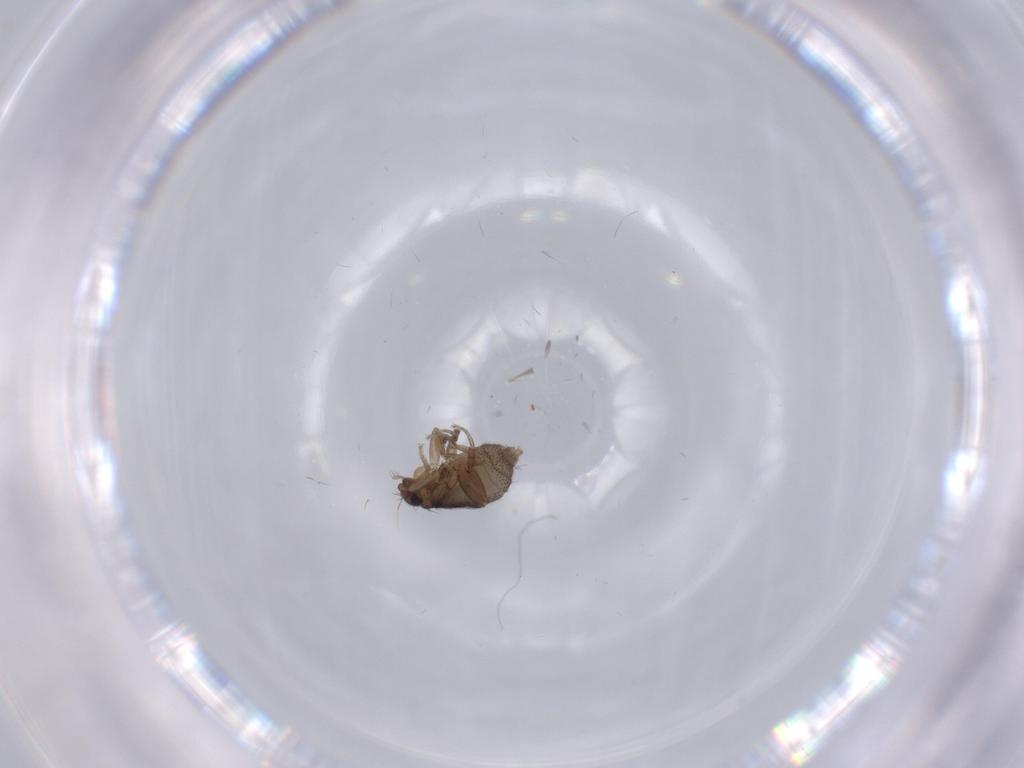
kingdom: Animalia
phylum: Arthropoda
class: Insecta
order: Diptera
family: Phoridae
